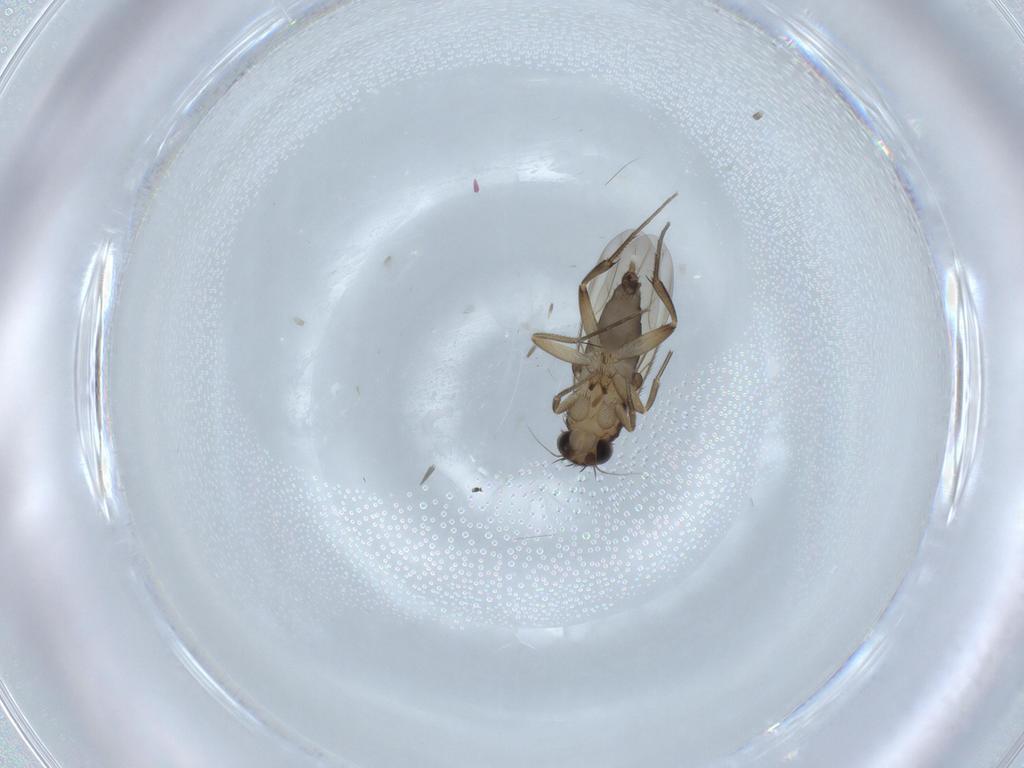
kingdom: Animalia
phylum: Arthropoda
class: Insecta
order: Diptera
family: Phoridae
